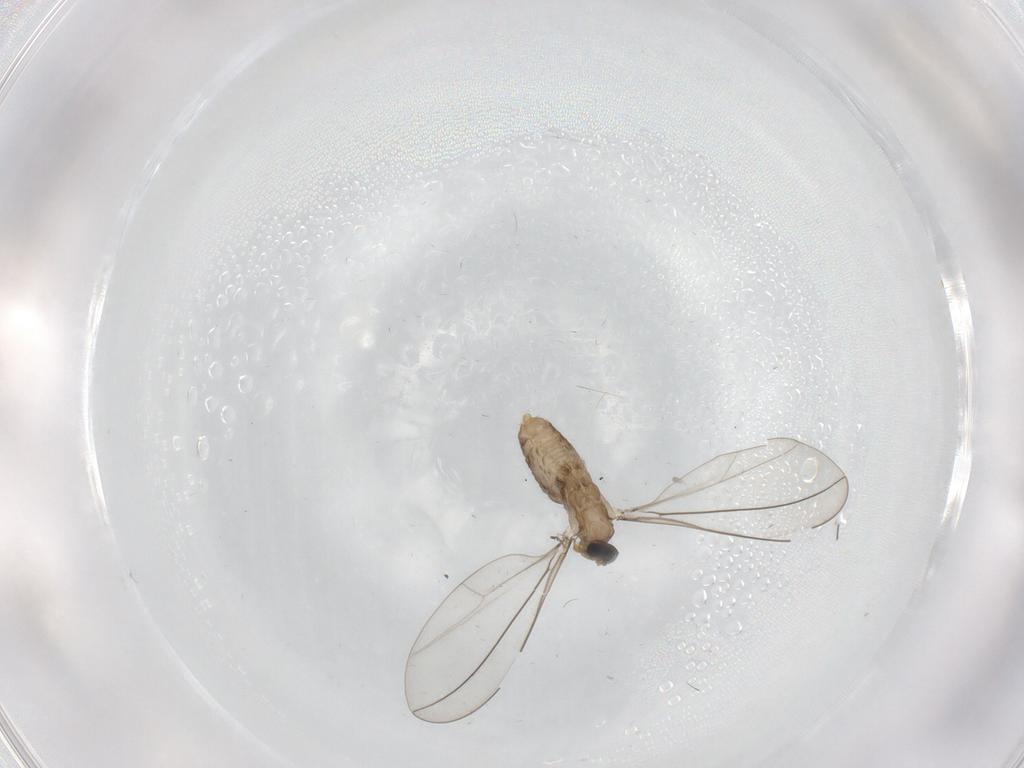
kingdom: Animalia
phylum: Arthropoda
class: Insecta
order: Diptera
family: Cecidomyiidae
